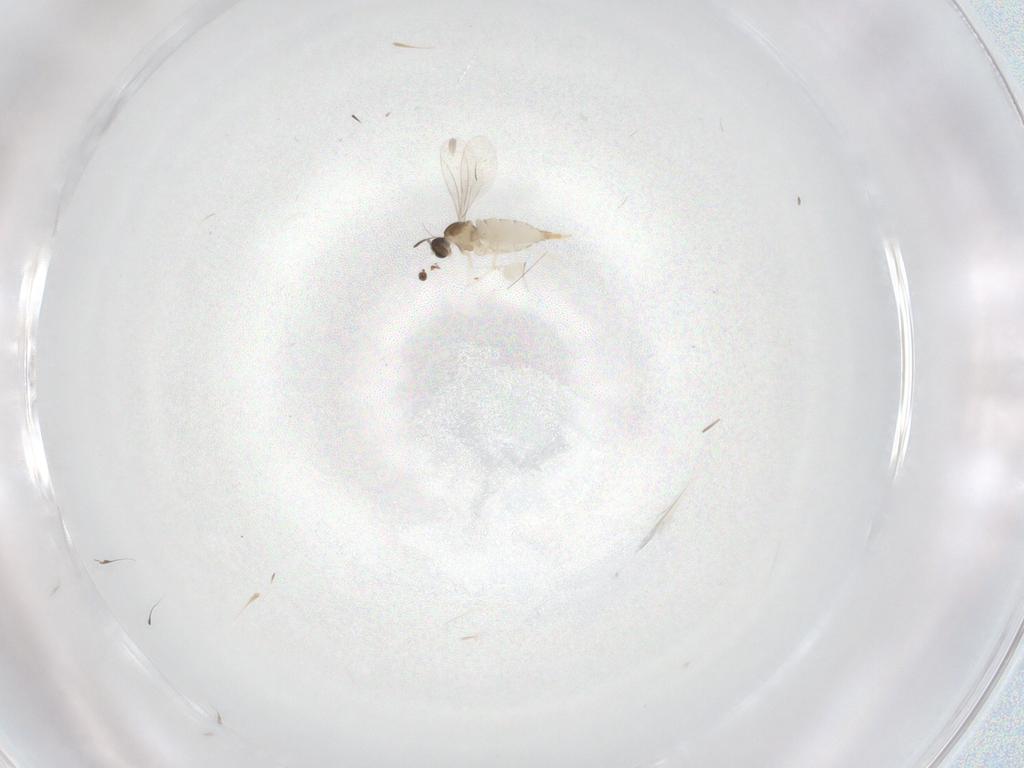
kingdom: Animalia
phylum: Arthropoda
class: Insecta
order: Diptera
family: Cecidomyiidae
